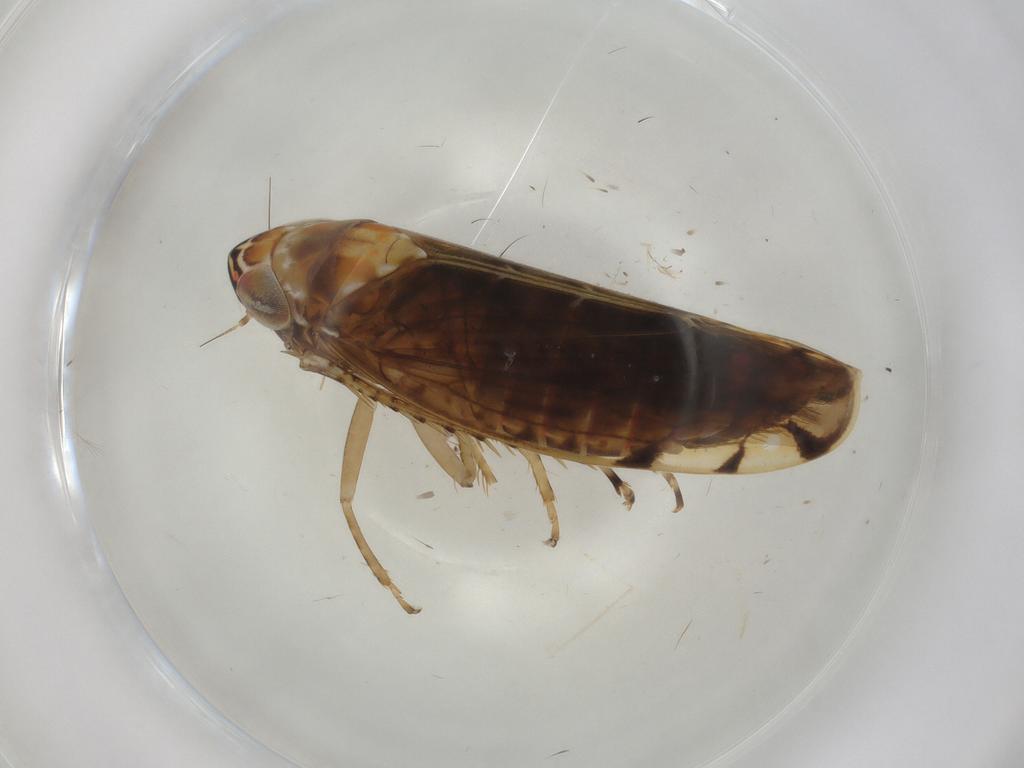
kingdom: Animalia
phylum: Arthropoda
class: Insecta
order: Hemiptera
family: Cicadellidae
